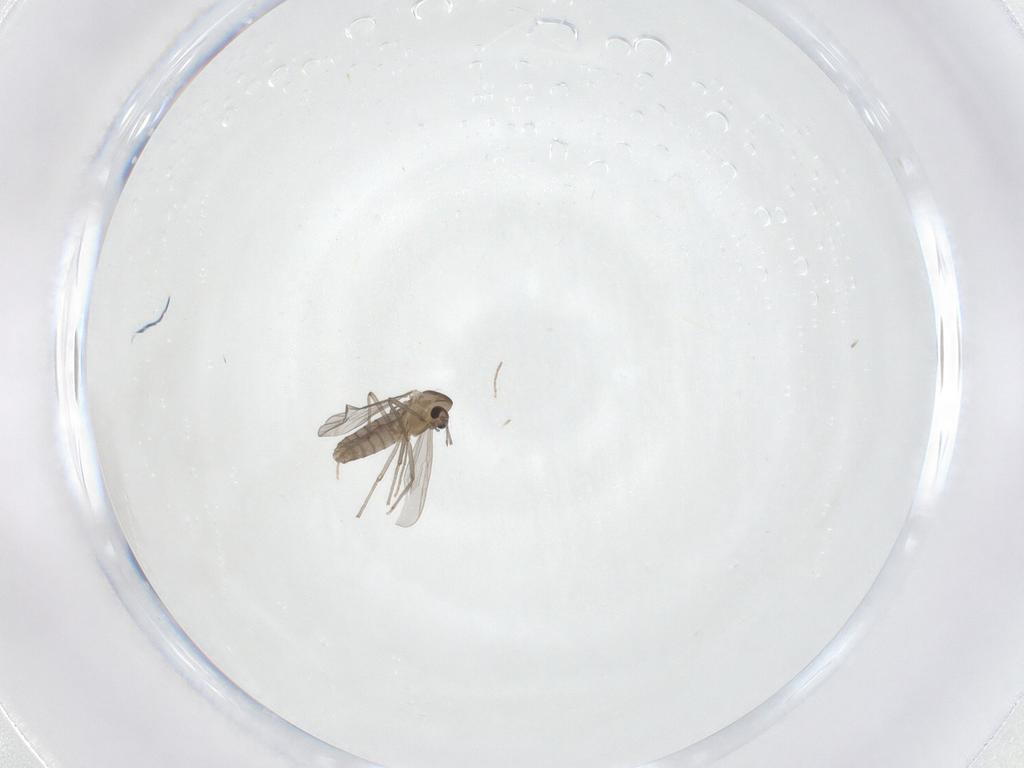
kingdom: Animalia
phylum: Arthropoda
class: Insecta
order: Diptera
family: Chironomidae
